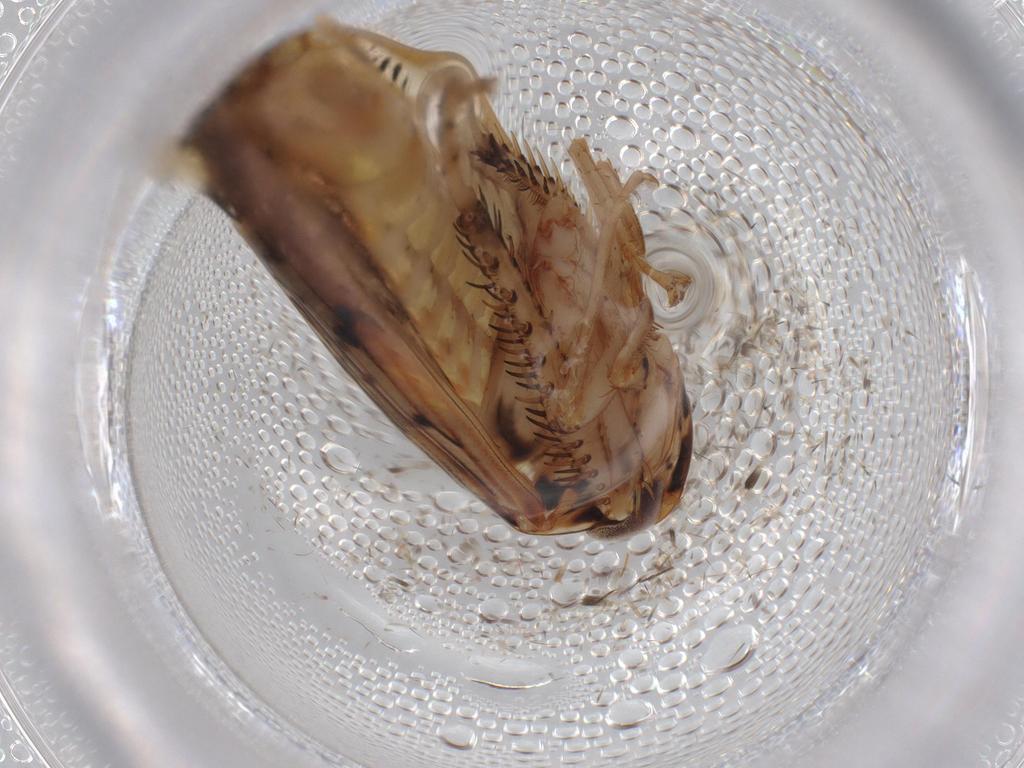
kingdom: Animalia
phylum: Arthropoda
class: Insecta
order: Hemiptera
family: Cicadellidae
